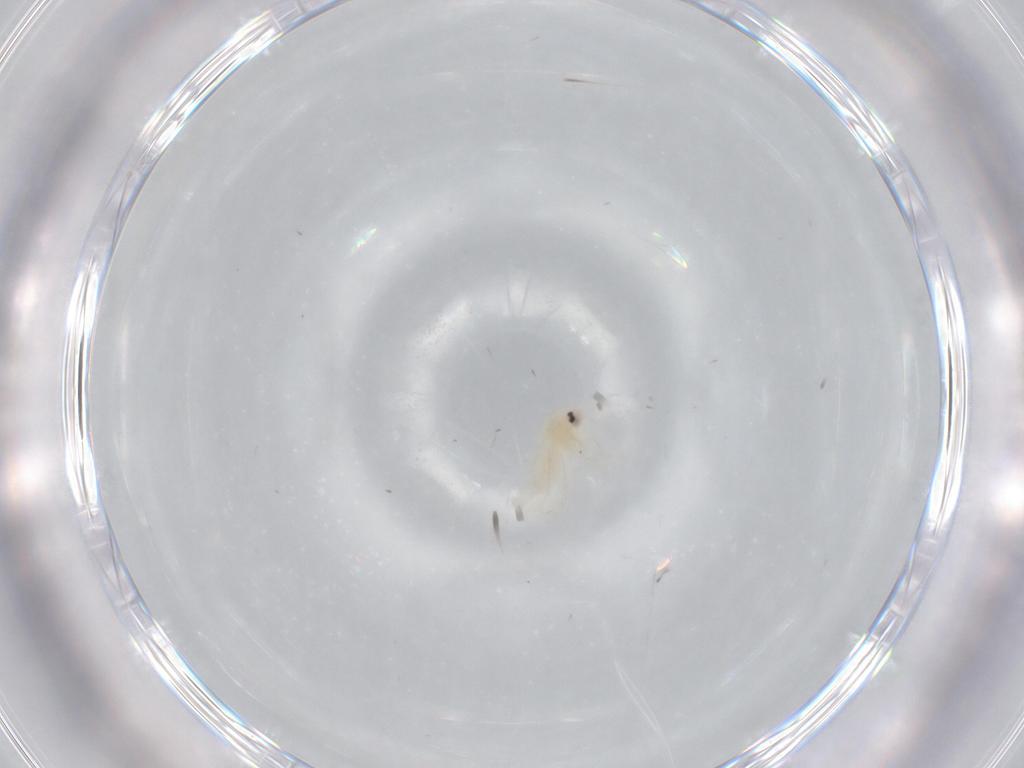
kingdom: Animalia
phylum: Arthropoda
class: Insecta
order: Hemiptera
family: Aleyrodidae
